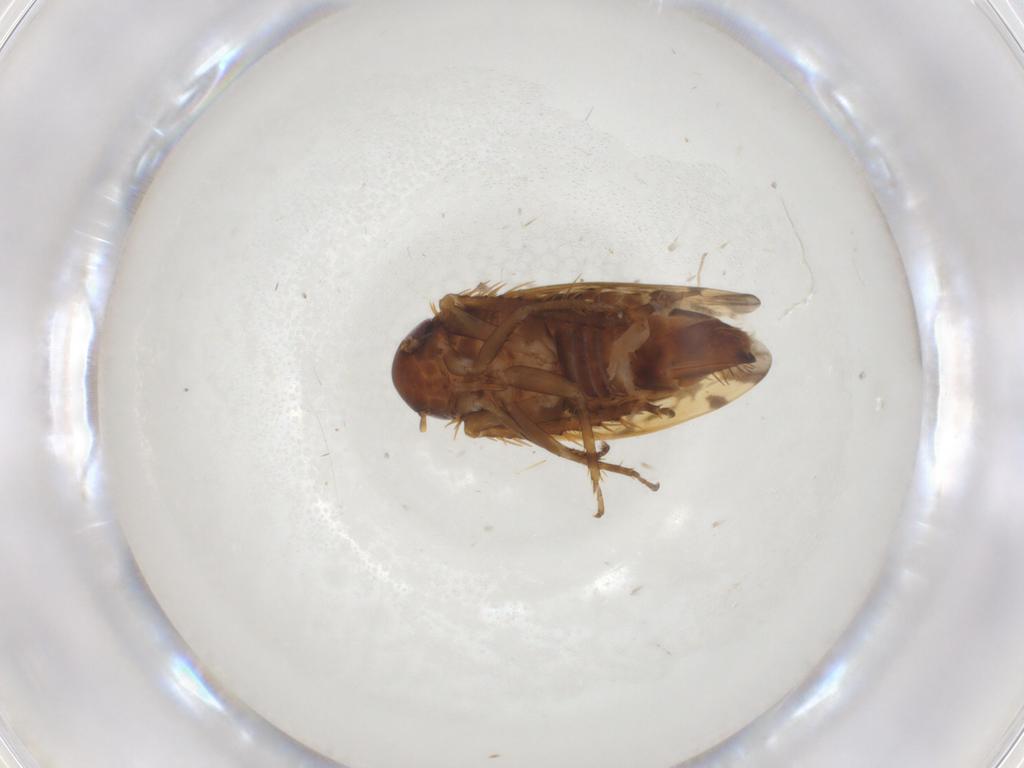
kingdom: Animalia
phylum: Arthropoda
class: Insecta
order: Hemiptera
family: Cicadellidae
